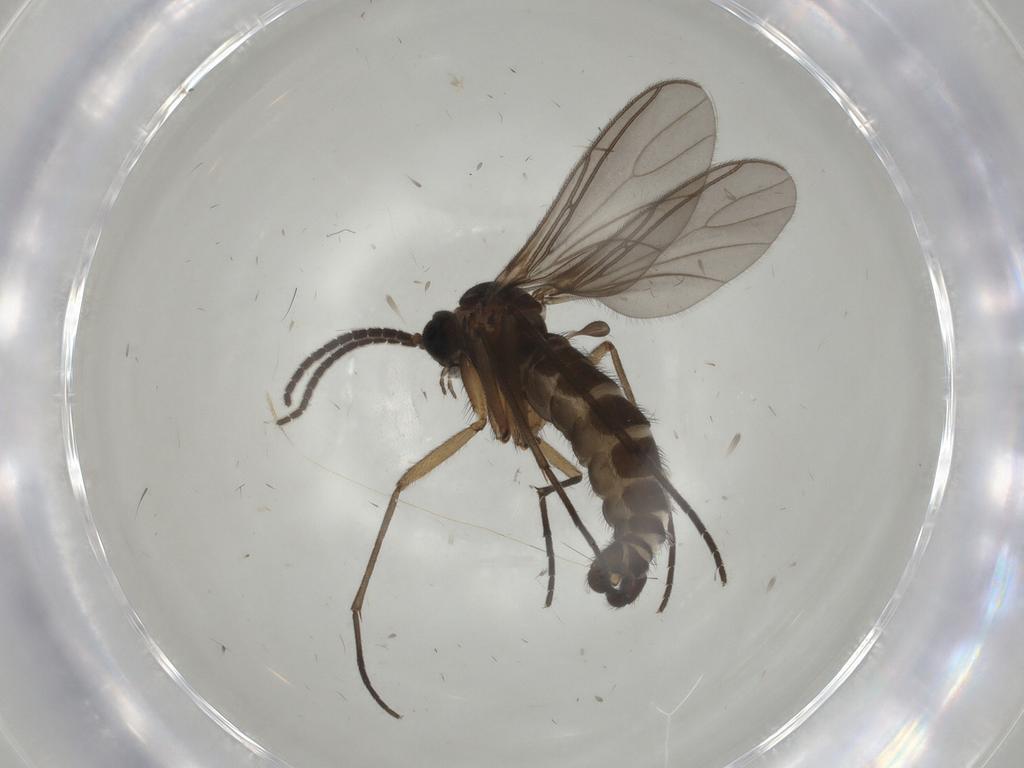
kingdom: Animalia
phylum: Arthropoda
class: Insecta
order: Diptera
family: Sciaridae
